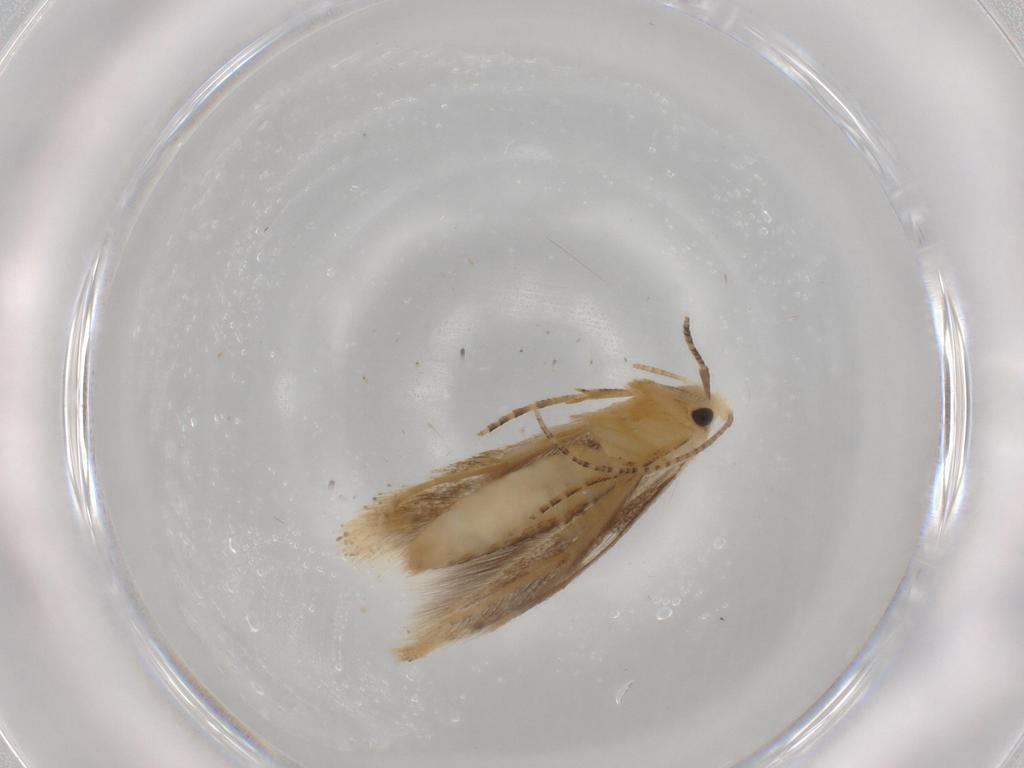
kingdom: Animalia
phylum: Arthropoda
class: Insecta
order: Lepidoptera
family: Bucculatricidae
